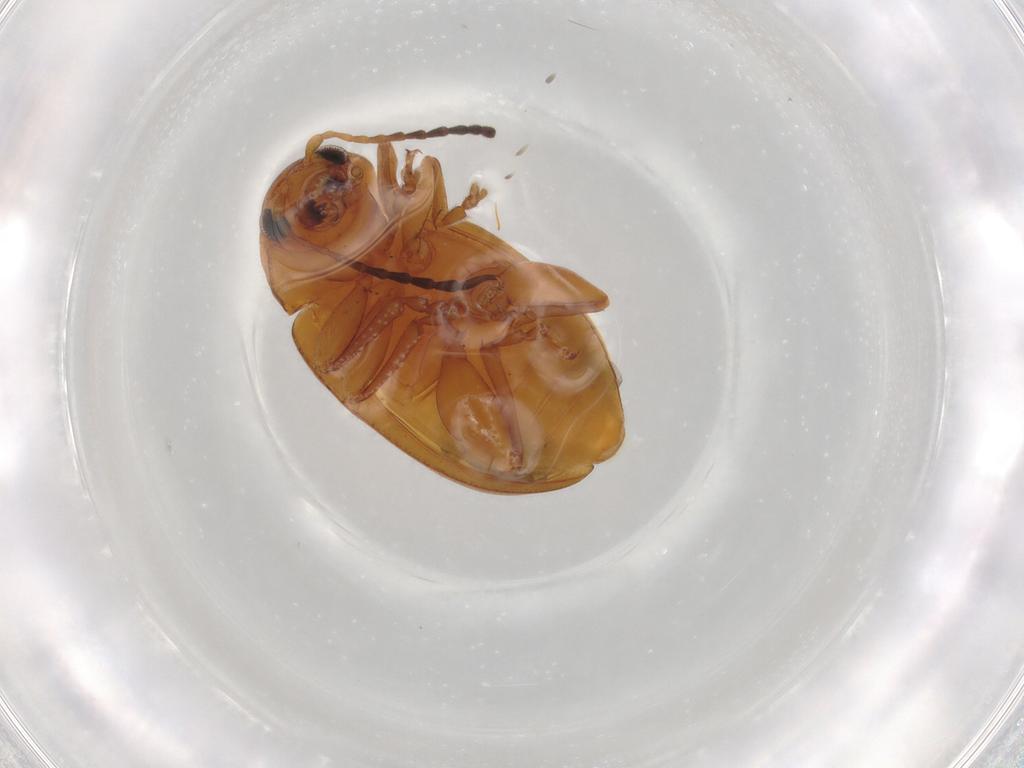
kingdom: Animalia
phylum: Arthropoda
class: Insecta
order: Coleoptera
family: Chrysomelidae
